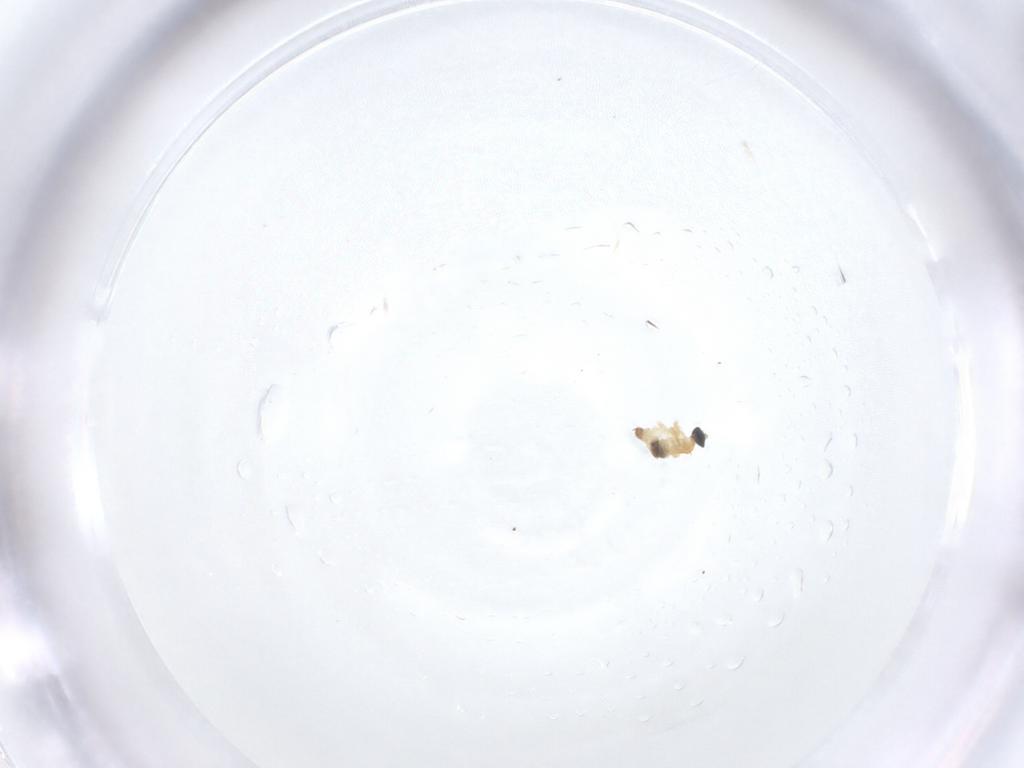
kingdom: Animalia
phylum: Arthropoda
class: Insecta
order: Diptera
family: Cecidomyiidae
